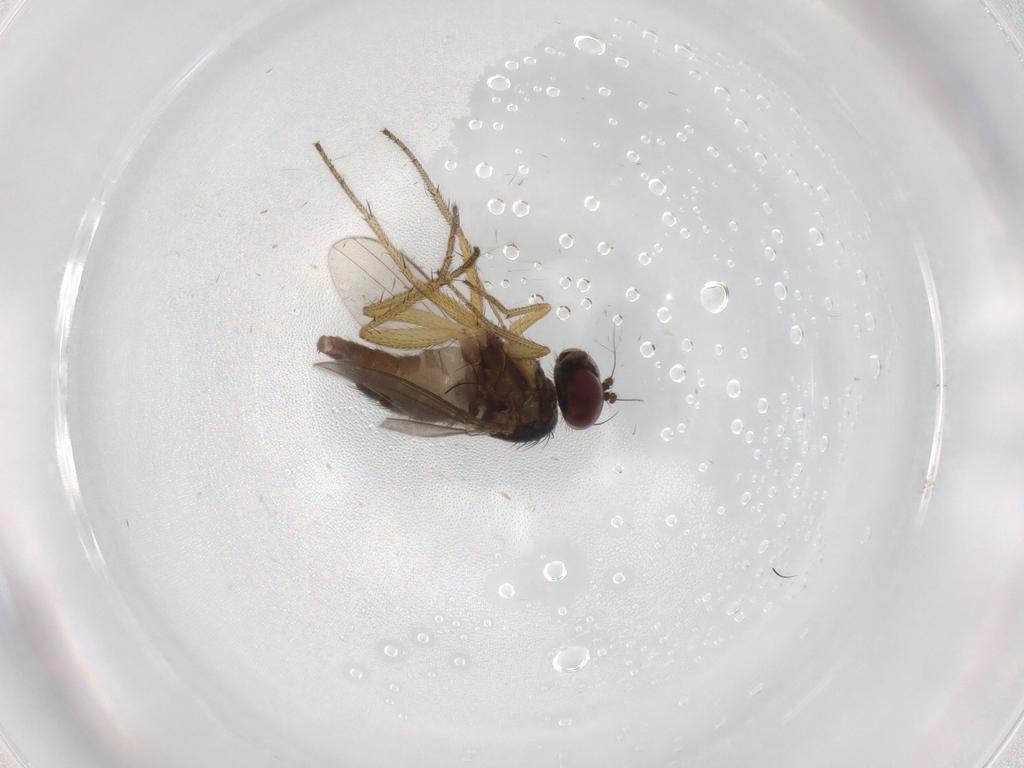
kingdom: Animalia
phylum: Arthropoda
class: Insecta
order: Diptera
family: Dolichopodidae
